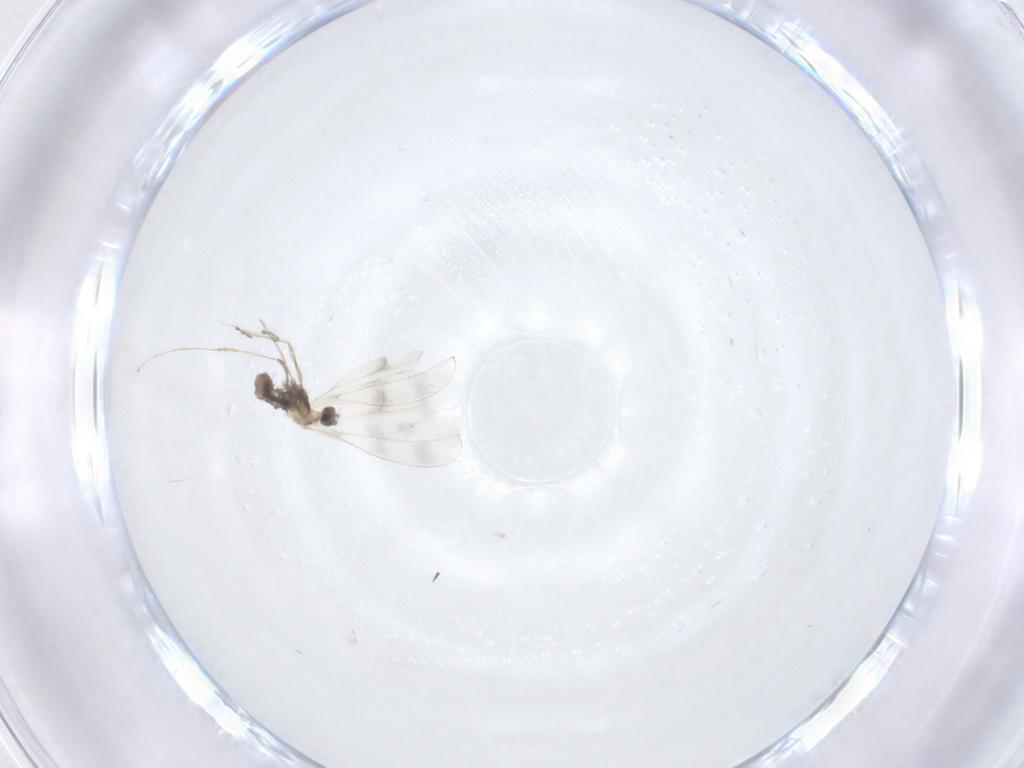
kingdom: Animalia
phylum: Arthropoda
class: Insecta
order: Diptera
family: Psychodidae
